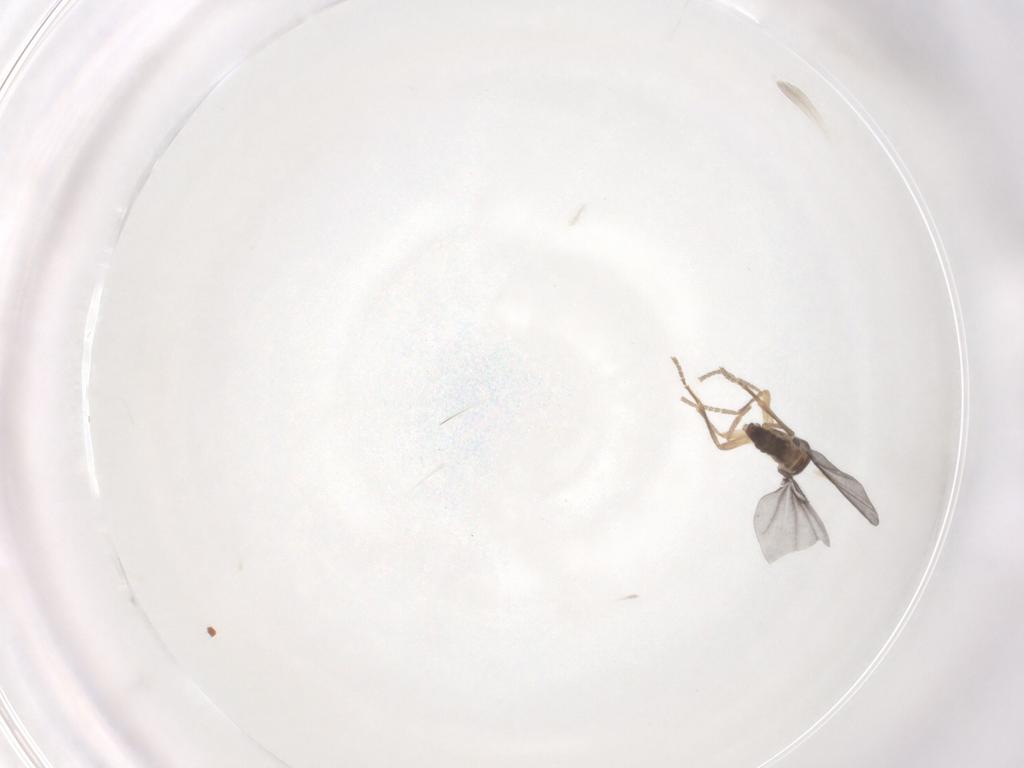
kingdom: Animalia
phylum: Arthropoda
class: Insecta
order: Diptera
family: Phoridae
